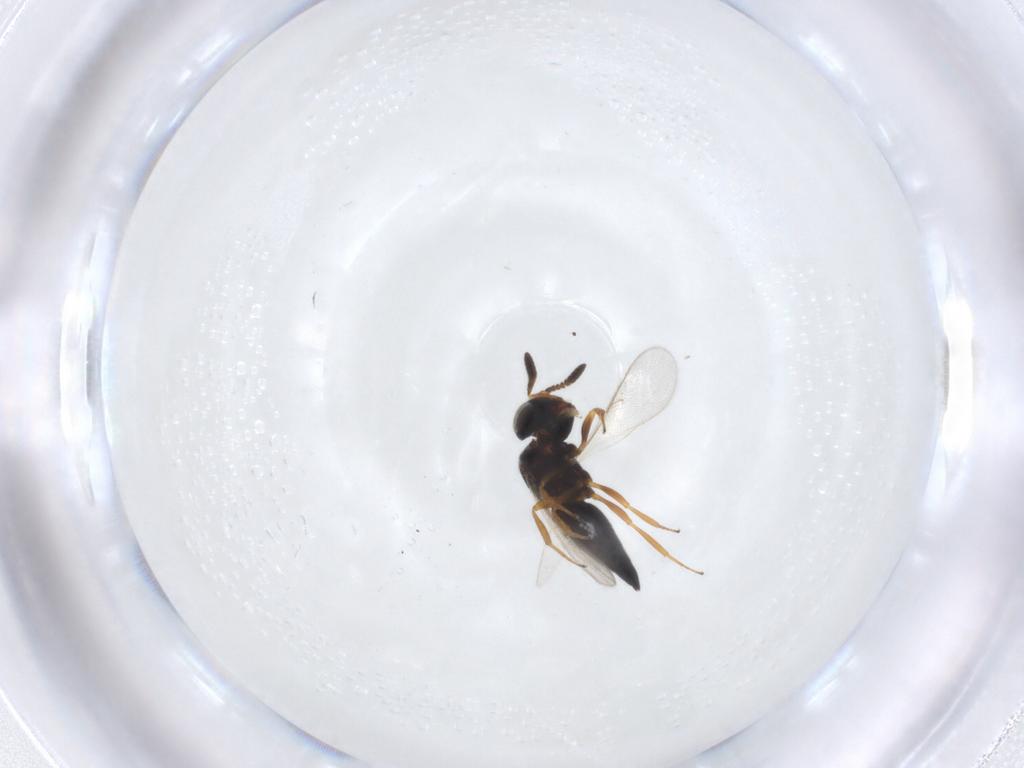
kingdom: Animalia
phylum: Arthropoda
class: Insecta
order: Hymenoptera
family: Scelionidae
